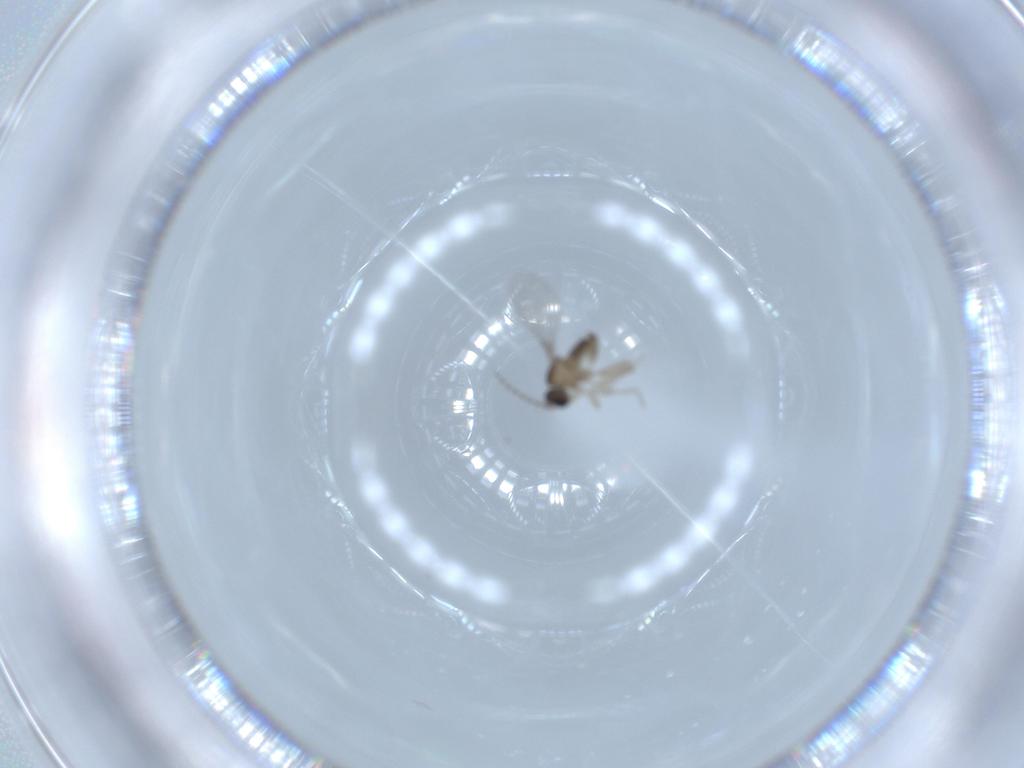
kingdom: Animalia
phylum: Arthropoda
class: Insecta
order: Diptera
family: Cecidomyiidae
